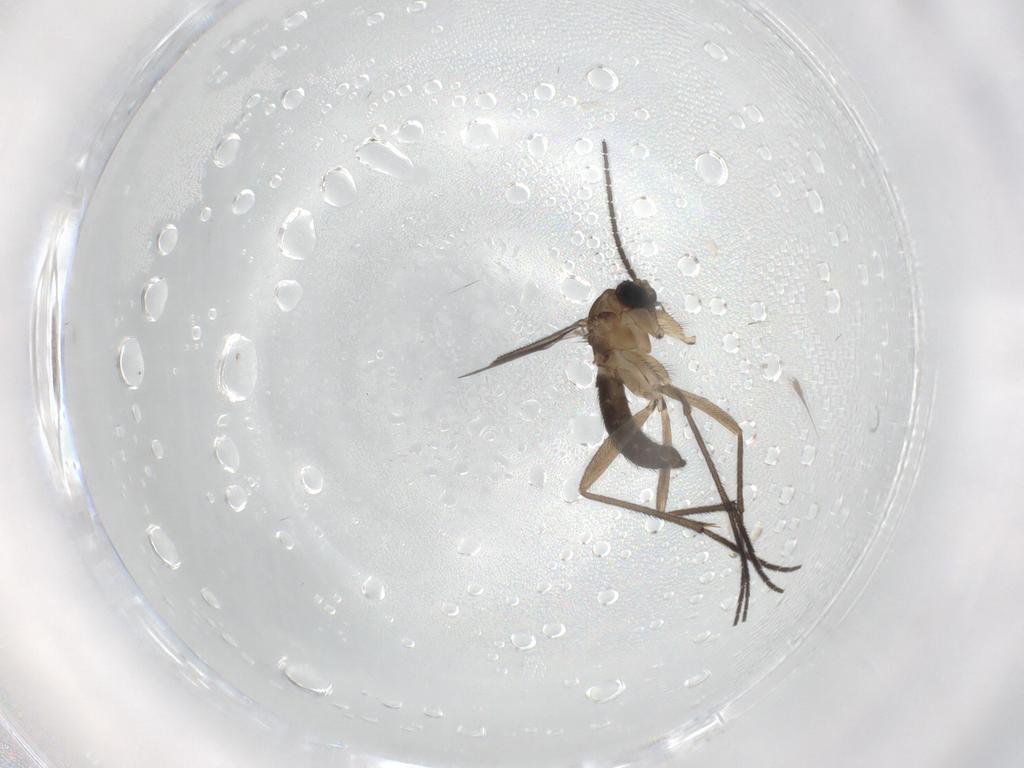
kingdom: Animalia
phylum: Arthropoda
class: Insecta
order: Diptera
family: Sciaridae
